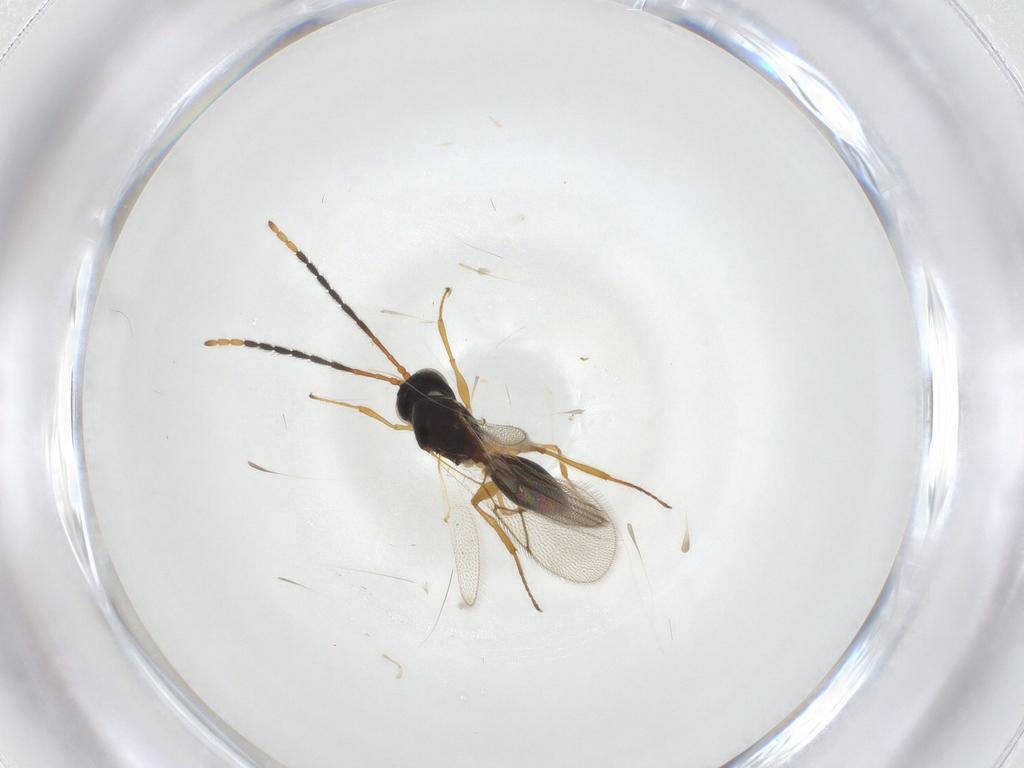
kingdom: Animalia
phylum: Arthropoda
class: Insecta
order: Hymenoptera
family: Figitidae
